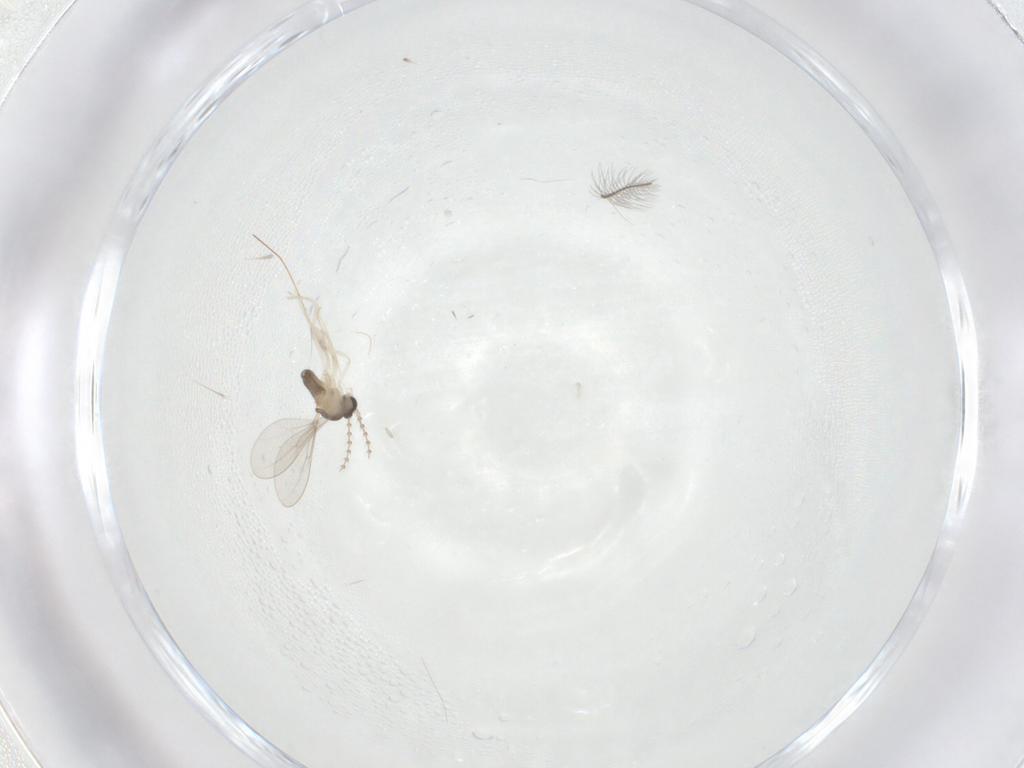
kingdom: Animalia
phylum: Arthropoda
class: Insecta
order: Diptera
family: Cecidomyiidae
